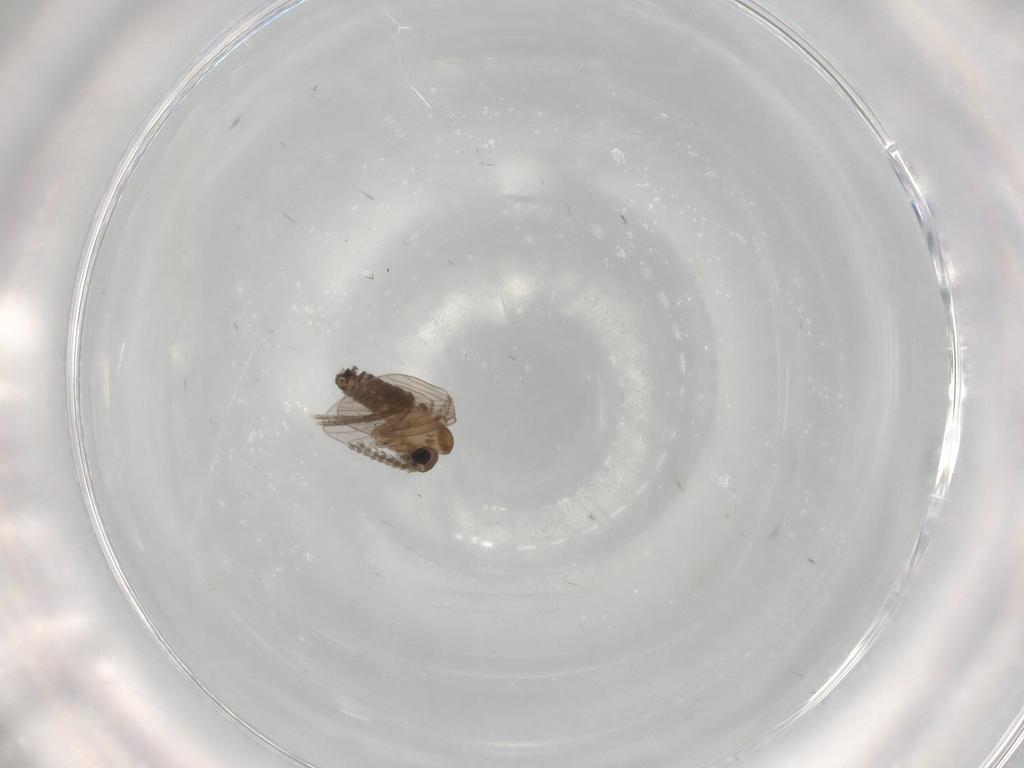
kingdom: Animalia
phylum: Arthropoda
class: Insecta
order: Diptera
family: Psychodidae
